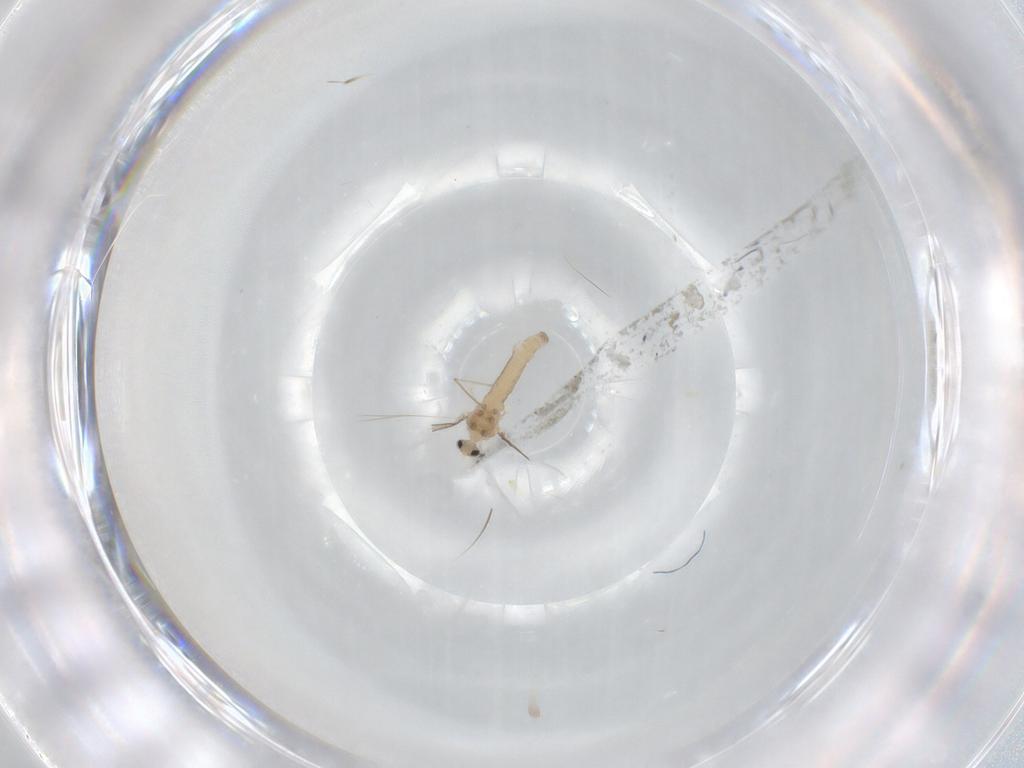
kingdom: Animalia
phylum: Arthropoda
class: Insecta
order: Diptera
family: Cecidomyiidae
